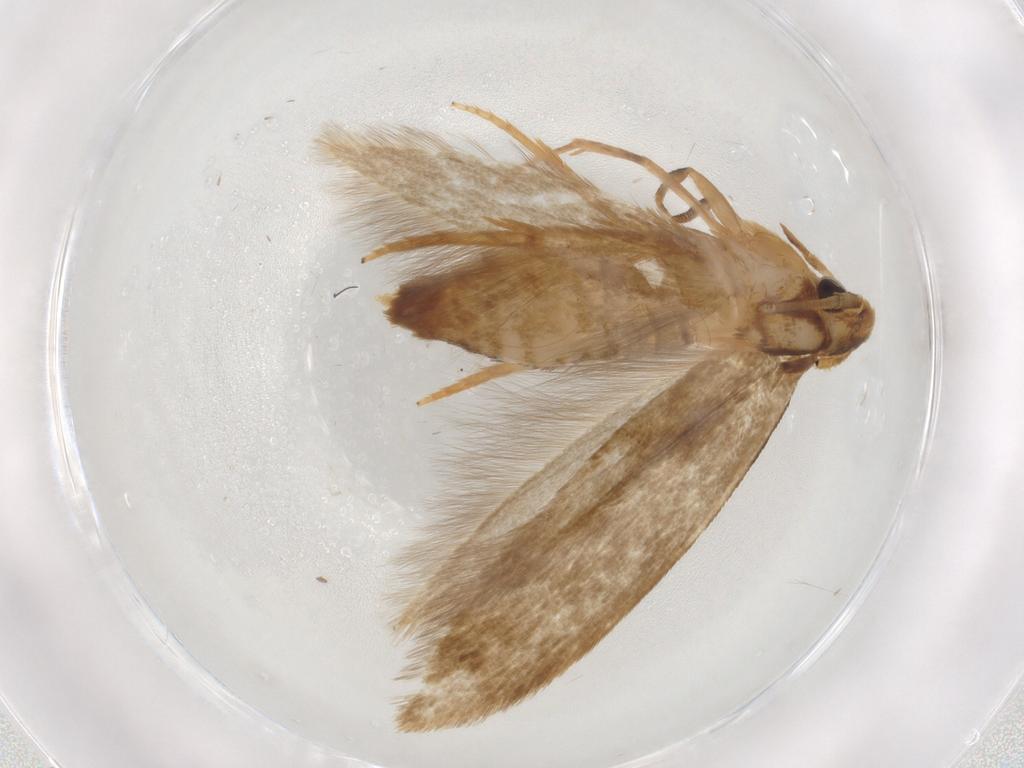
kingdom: Animalia
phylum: Arthropoda
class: Insecta
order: Lepidoptera
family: Tineidae
